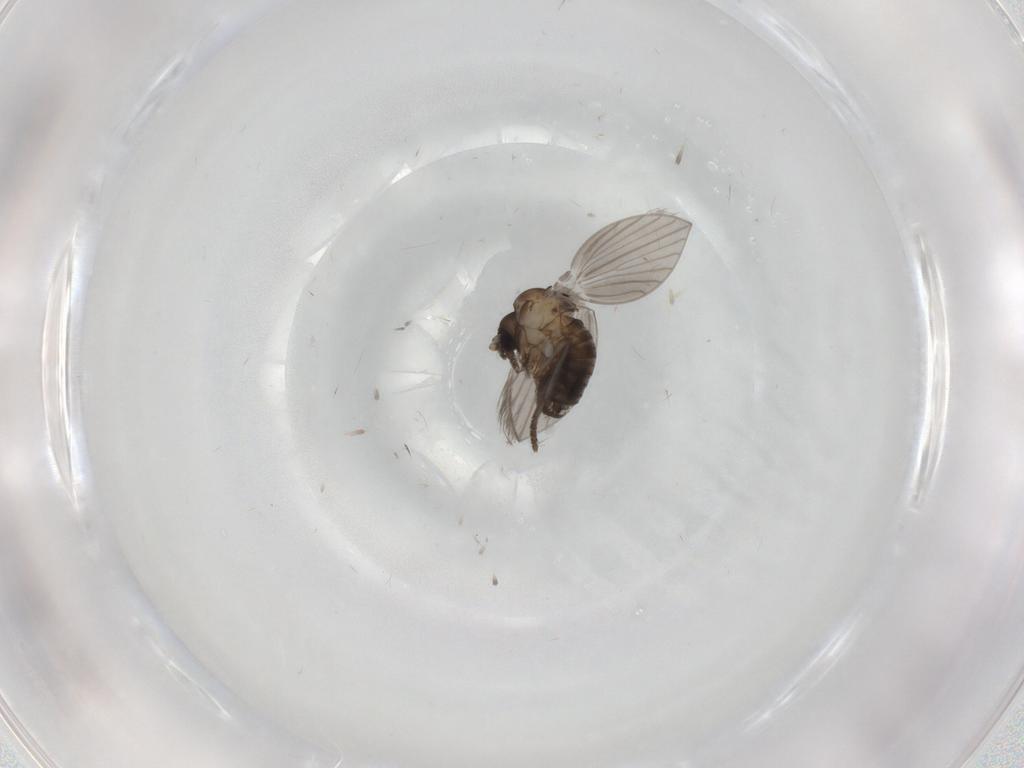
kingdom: Animalia
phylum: Arthropoda
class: Insecta
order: Diptera
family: Psychodidae
